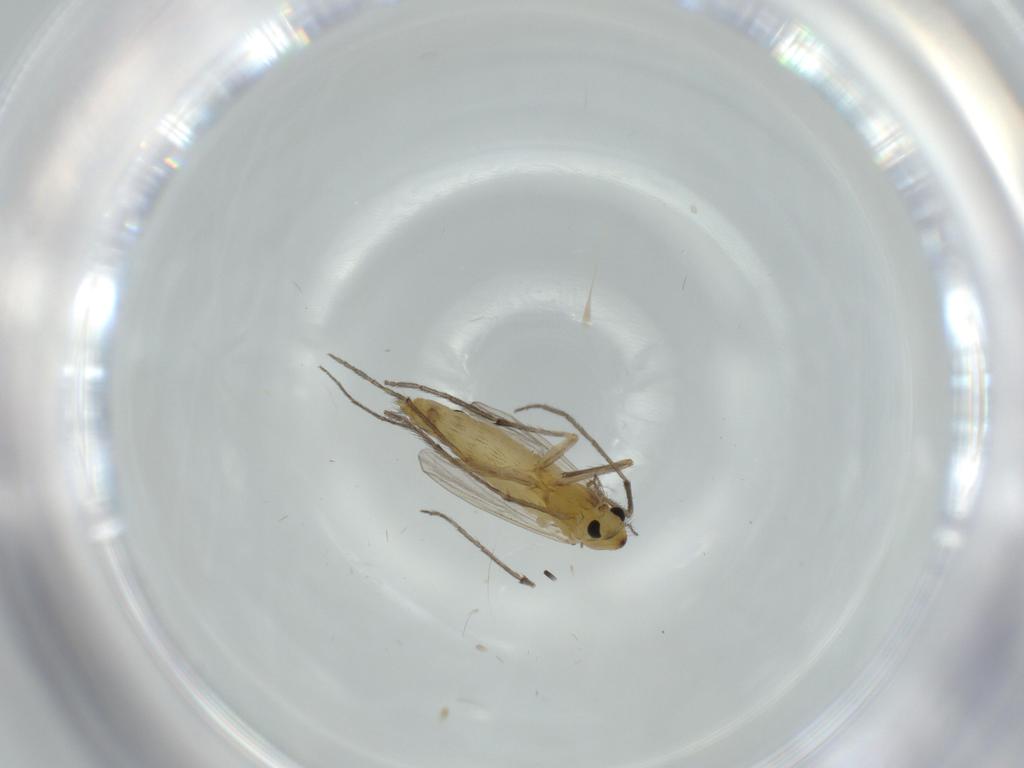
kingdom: Animalia
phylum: Arthropoda
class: Insecta
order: Diptera
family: Chironomidae
